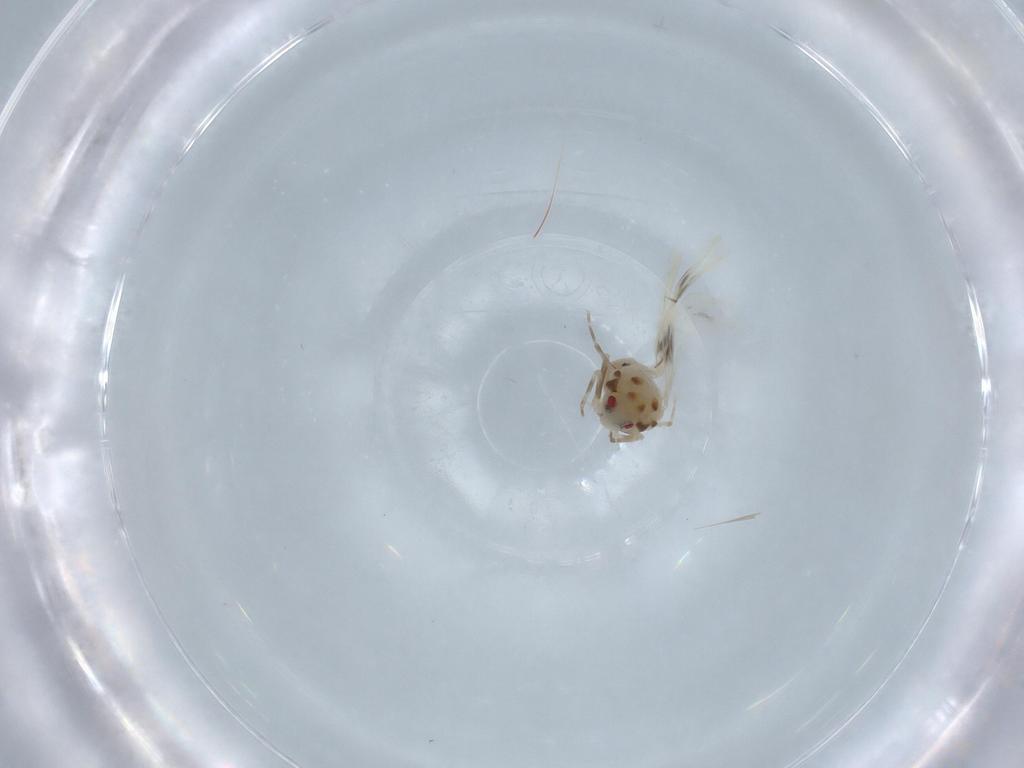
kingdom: Animalia
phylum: Arthropoda
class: Insecta
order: Hemiptera
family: Aleyrodidae
